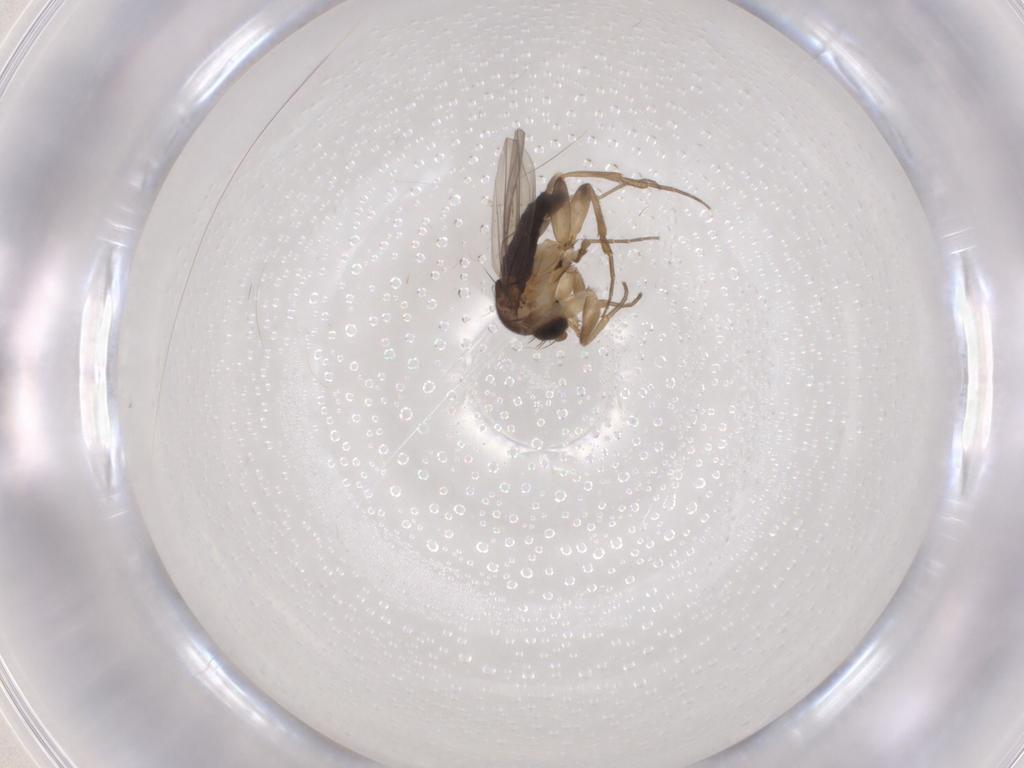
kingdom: Animalia
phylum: Arthropoda
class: Insecta
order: Diptera
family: Phoridae
